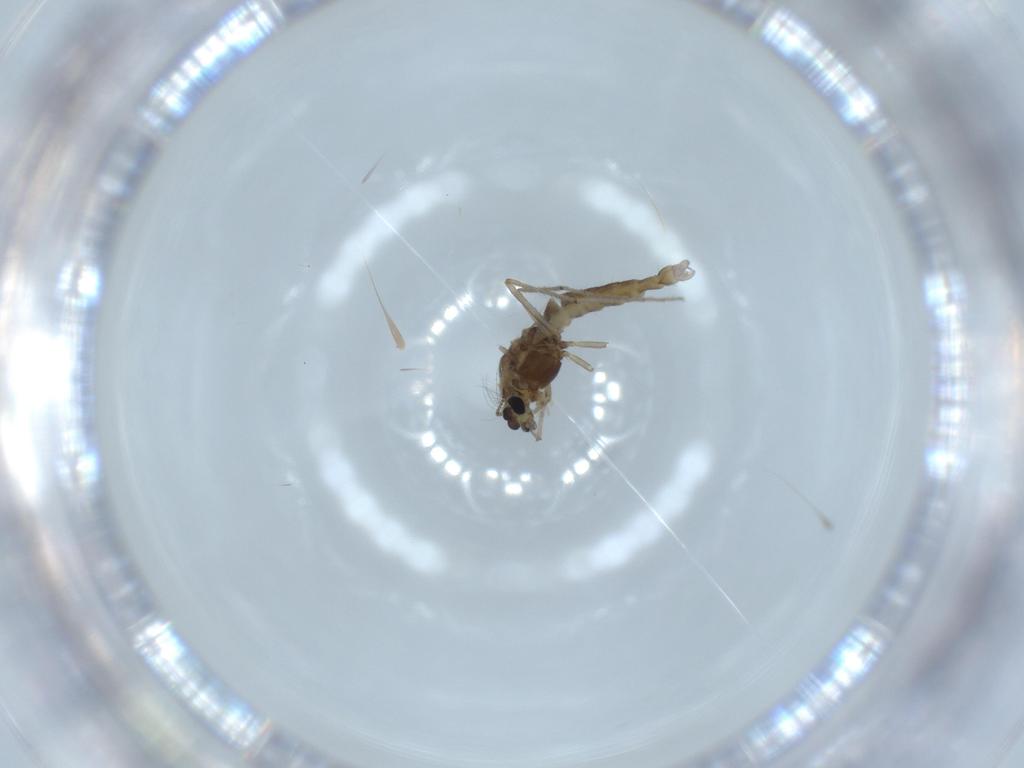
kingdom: Animalia
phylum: Arthropoda
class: Insecta
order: Diptera
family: Chironomidae
